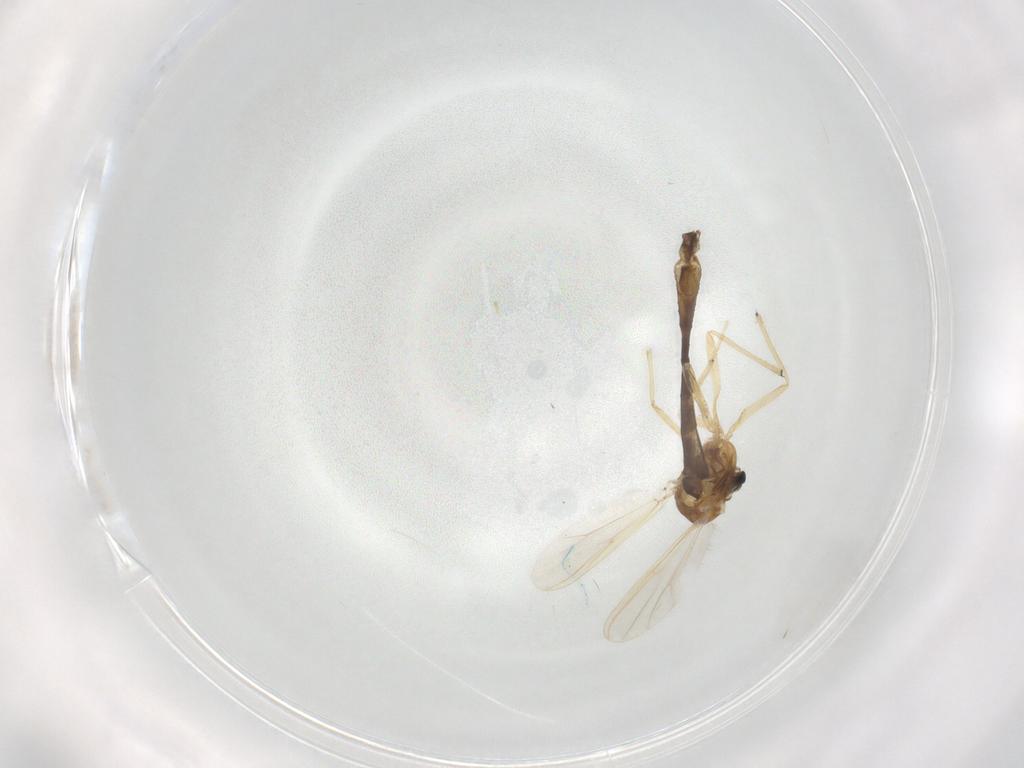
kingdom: Animalia
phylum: Arthropoda
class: Insecta
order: Diptera
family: Chironomidae
